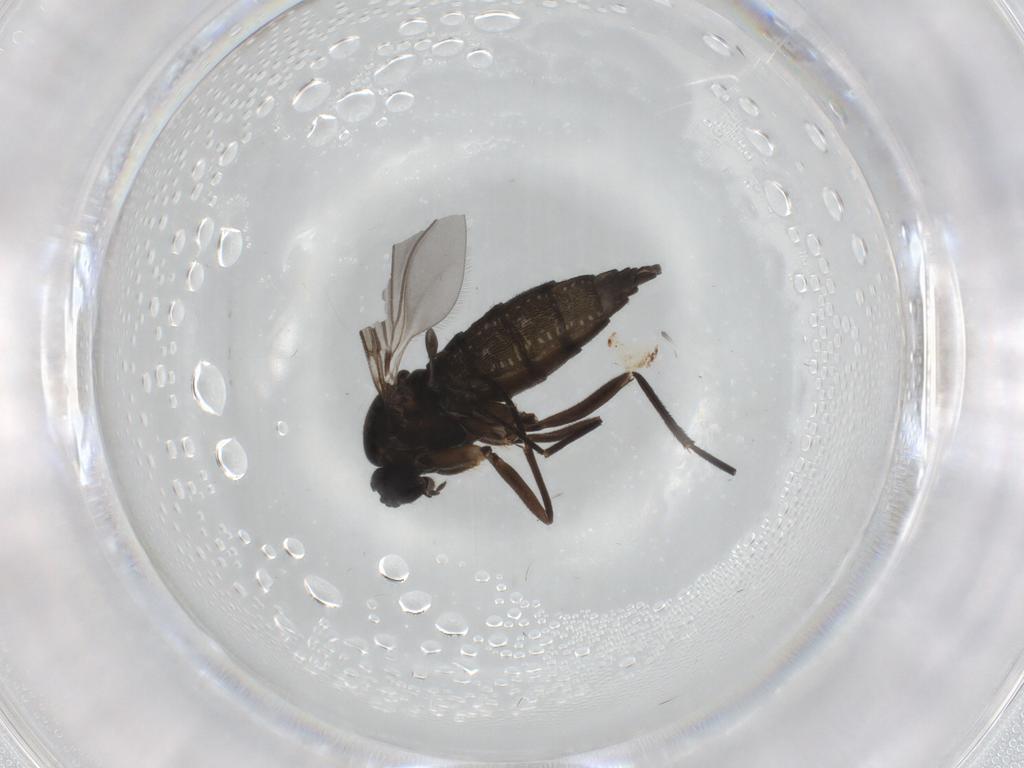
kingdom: Animalia
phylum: Arthropoda
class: Insecta
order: Diptera
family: Sciaridae
